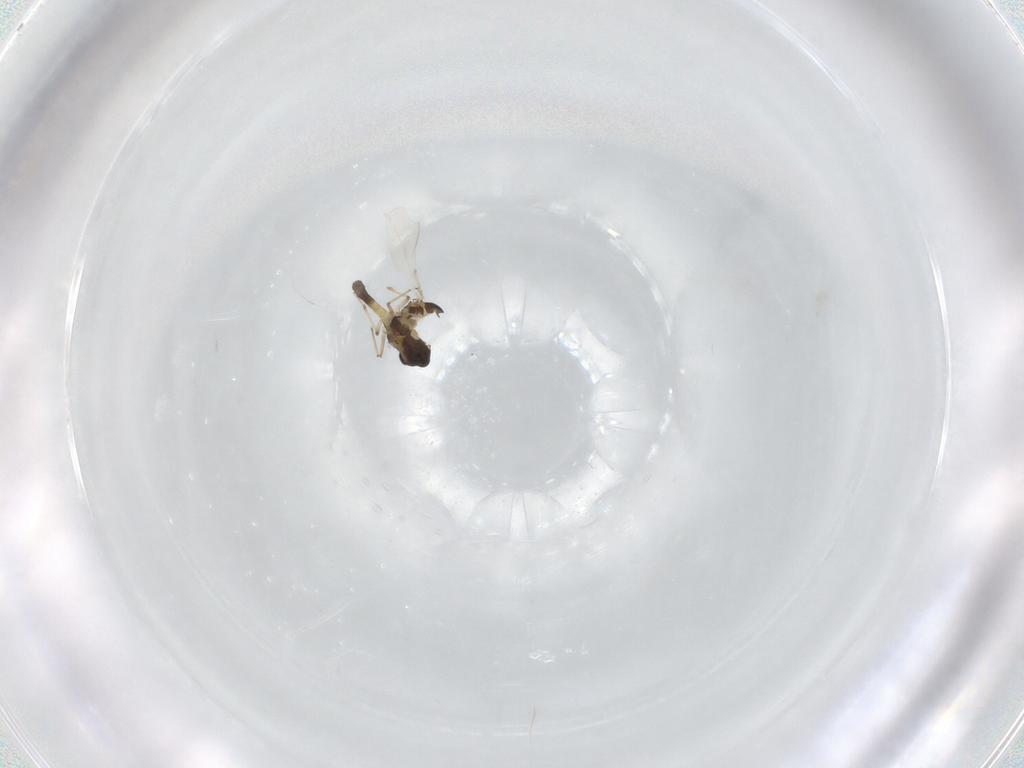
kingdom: Animalia
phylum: Arthropoda
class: Insecta
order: Diptera
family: Chironomidae
